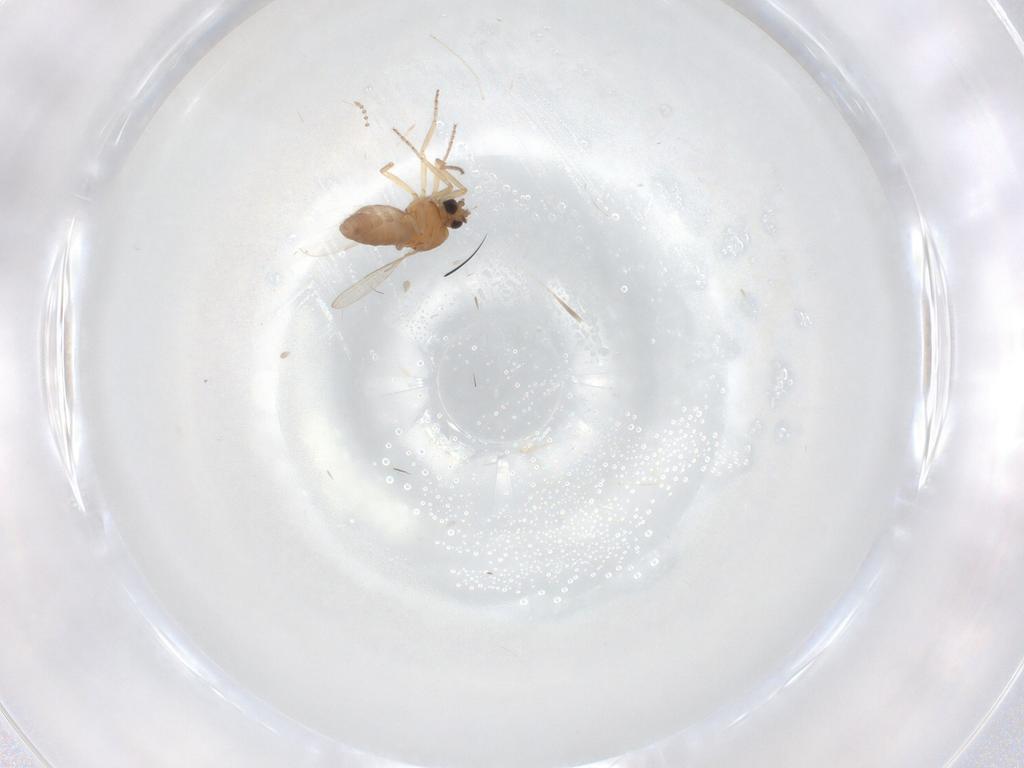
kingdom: Animalia
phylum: Arthropoda
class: Insecta
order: Diptera
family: Ceratopogonidae
